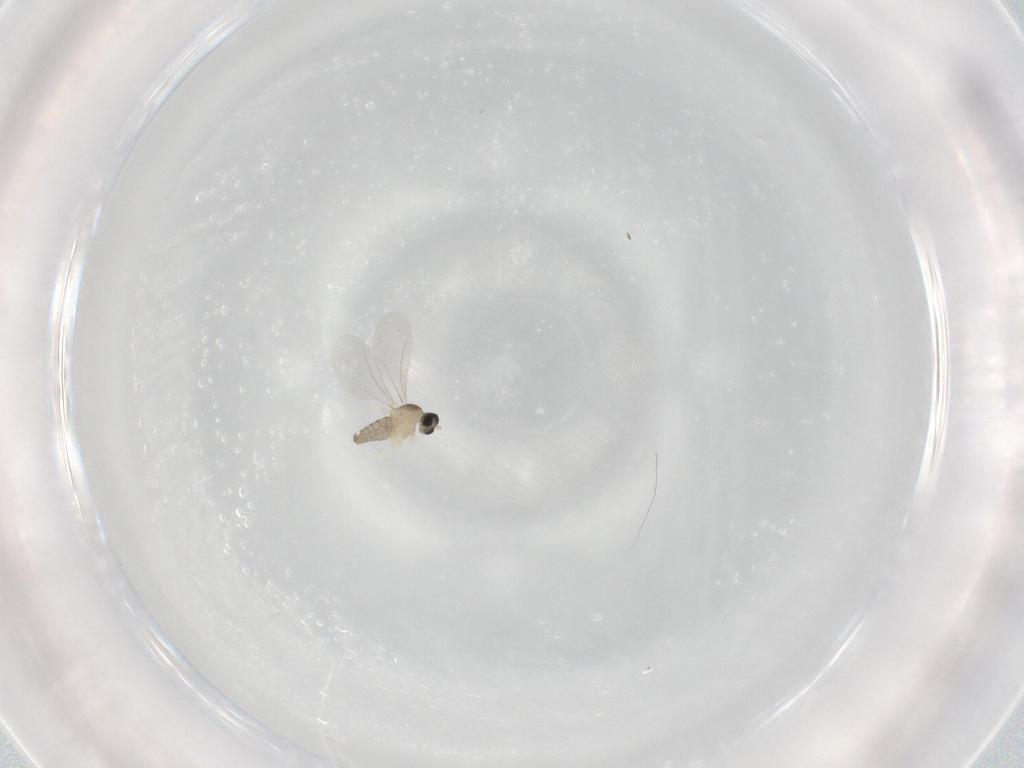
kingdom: Animalia
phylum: Arthropoda
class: Insecta
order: Diptera
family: Cecidomyiidae
